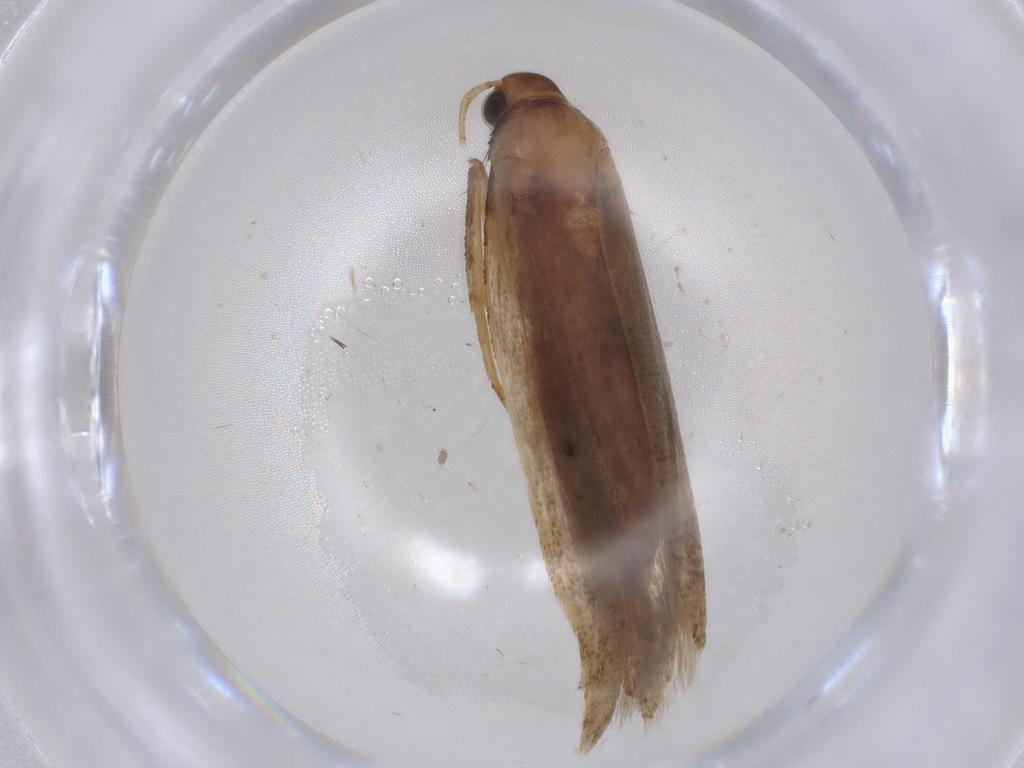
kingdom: Animalia
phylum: Arthropoda
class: Insecta
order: Lepidoptera
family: Gelechiidae
